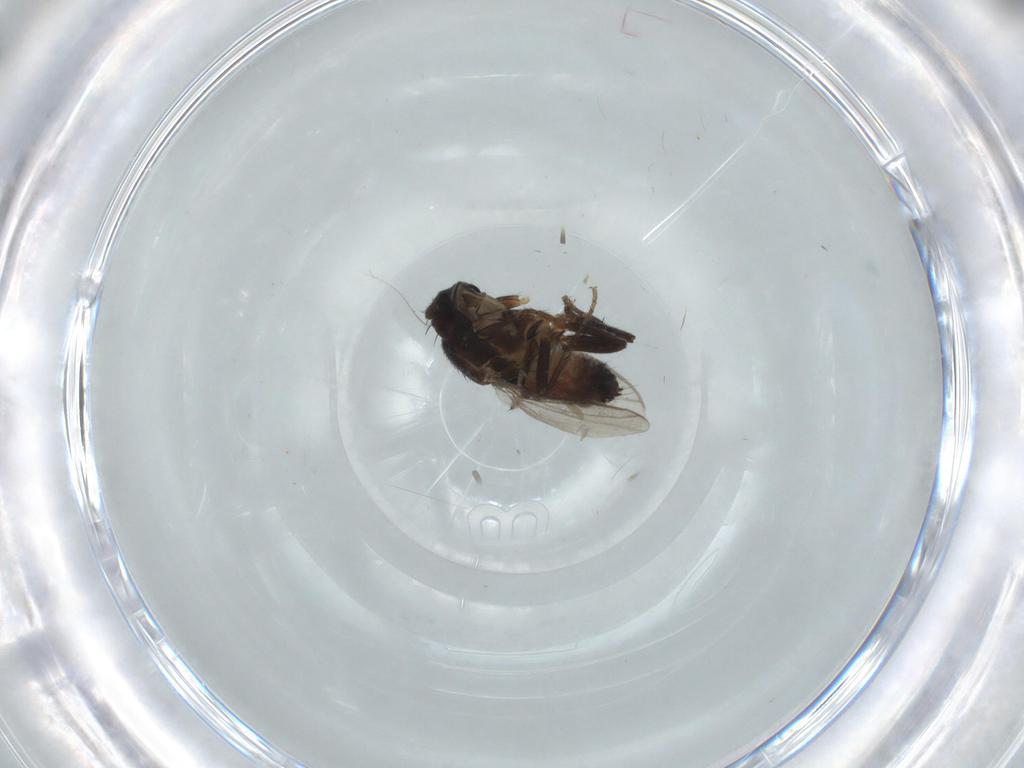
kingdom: Animalia
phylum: Arthropoda
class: Insecta
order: Diptera
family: Sphaeroceridae
